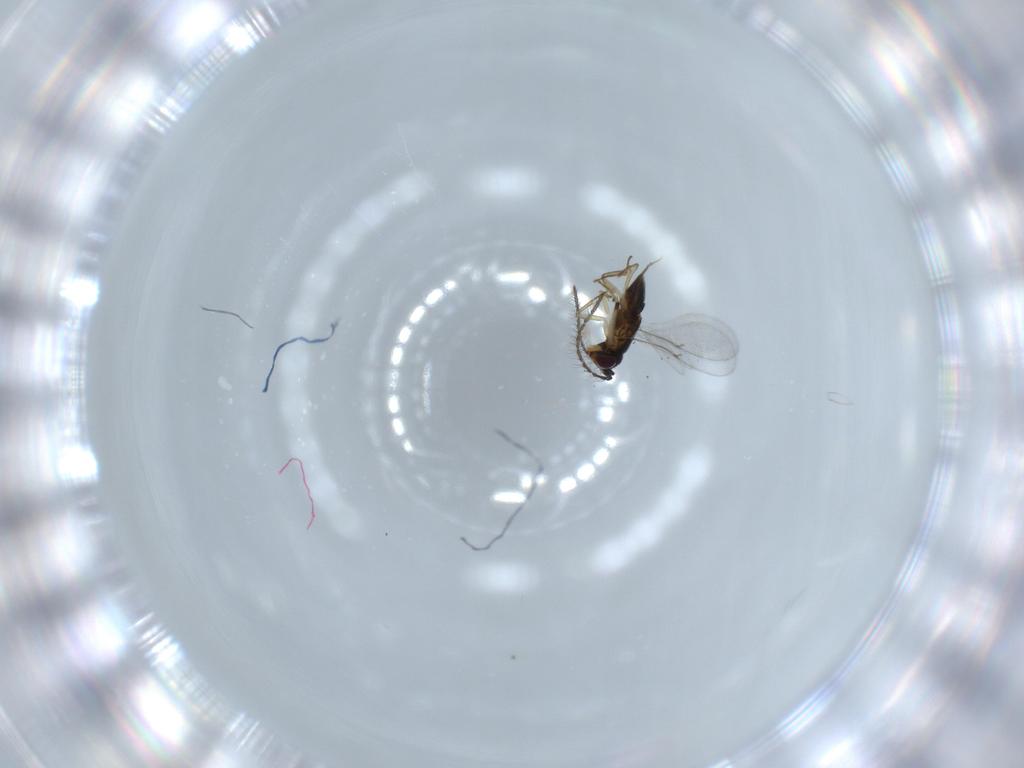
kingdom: Animalia
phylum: Arthropoda
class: Insecta
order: Hymenoptera
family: Encyrtidae
